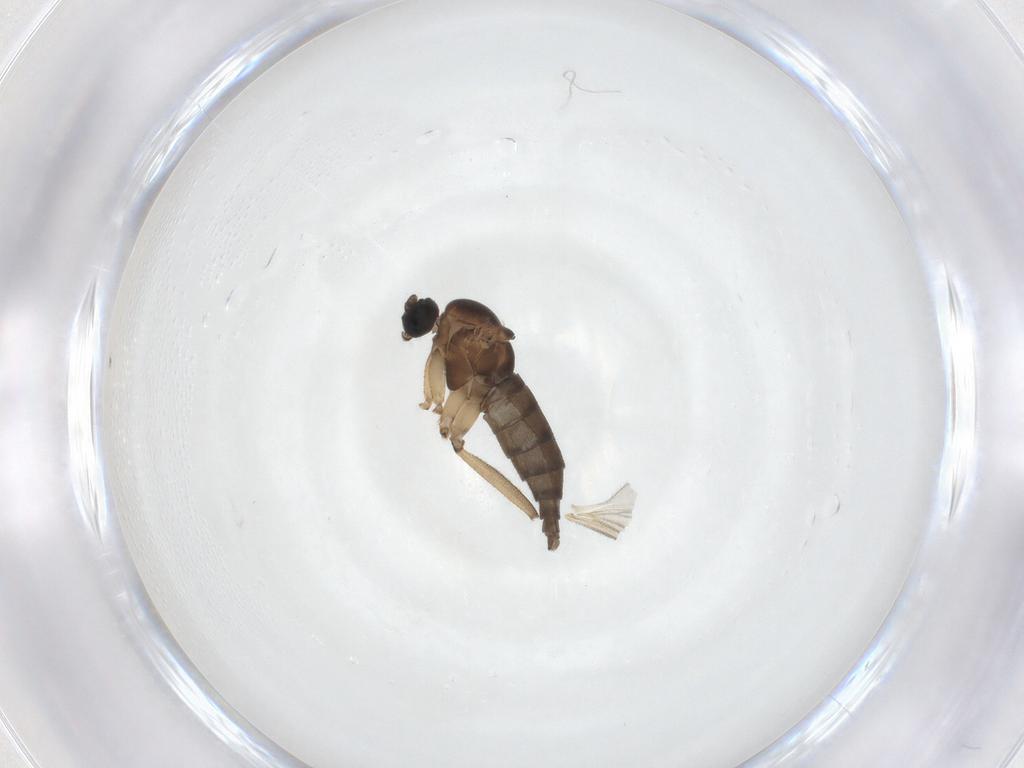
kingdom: Animalia
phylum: Arthropoda
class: Insecta
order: Diptera
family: Sciaridae
